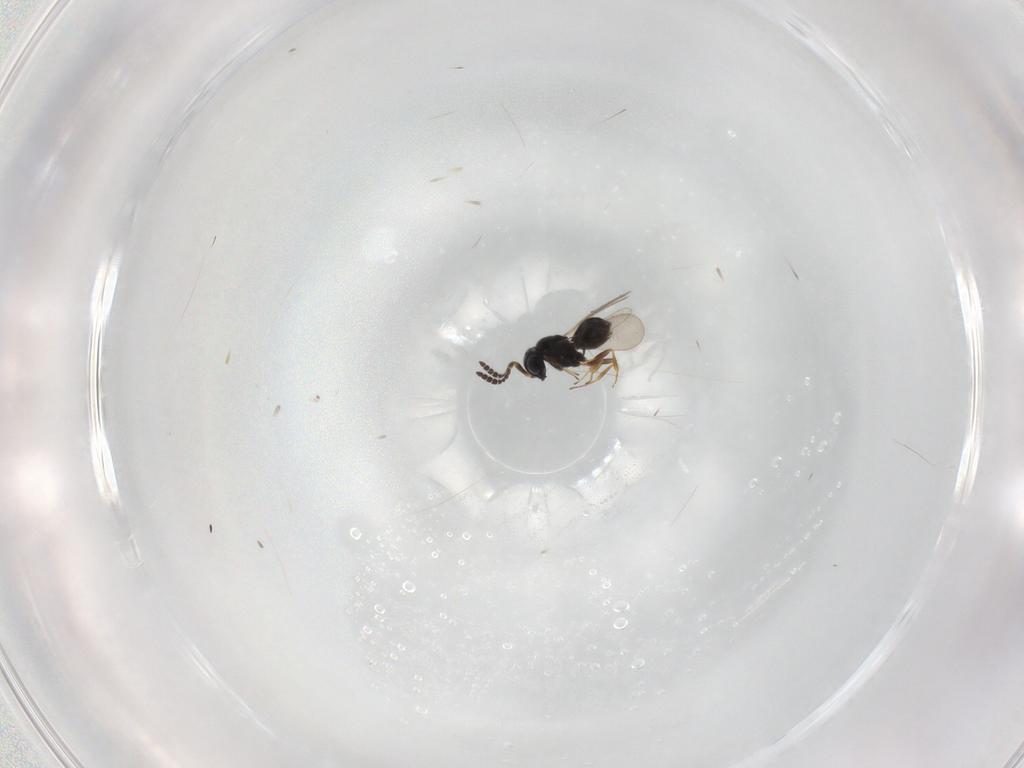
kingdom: Animalia
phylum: Arthropoda
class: Insecta
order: Hymenoptera
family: Scelionidae
